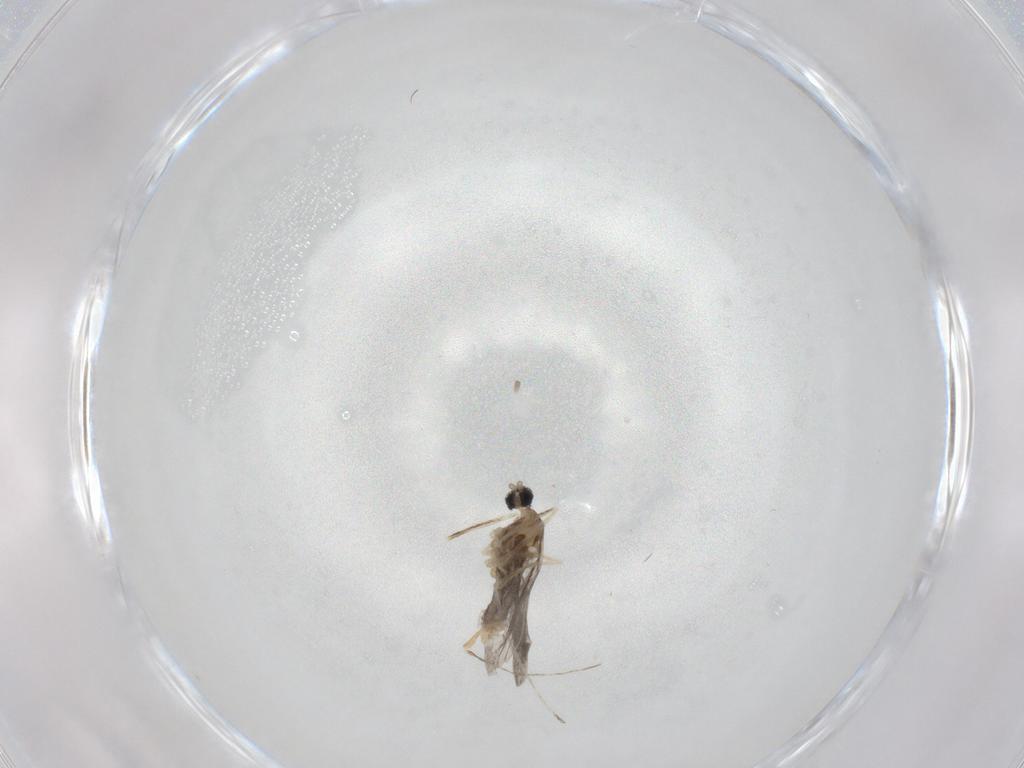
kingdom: Animalia
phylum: Arthropoda
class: Insecta
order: Diptera
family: Cecidomyiidae
